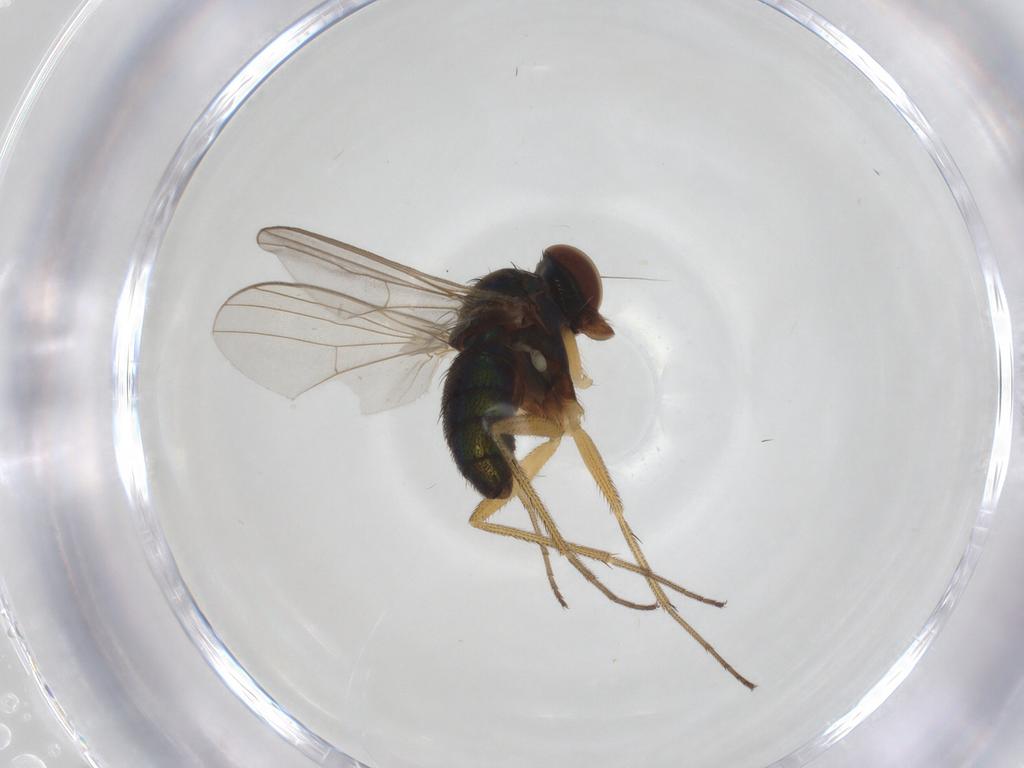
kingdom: Animalia
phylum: Arthropoda
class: Insecta
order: Diptera
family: Chironomidae
